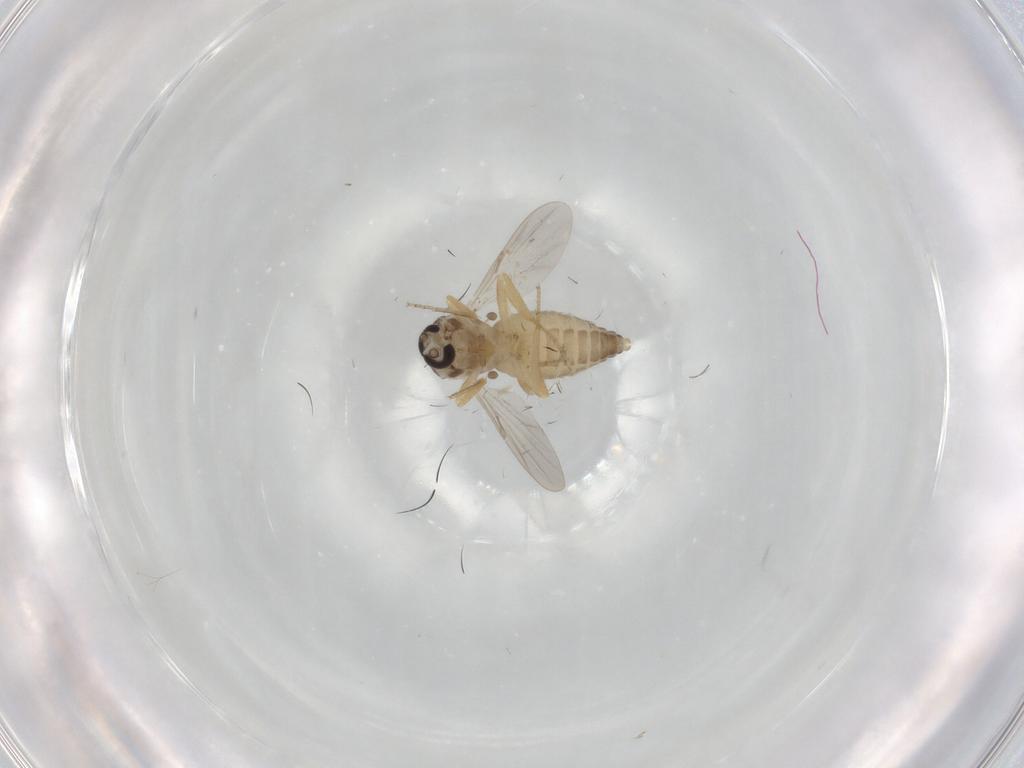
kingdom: Animalia
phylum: Arthropoda
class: Insecta
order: Diptera
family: Ceratopogonidae
